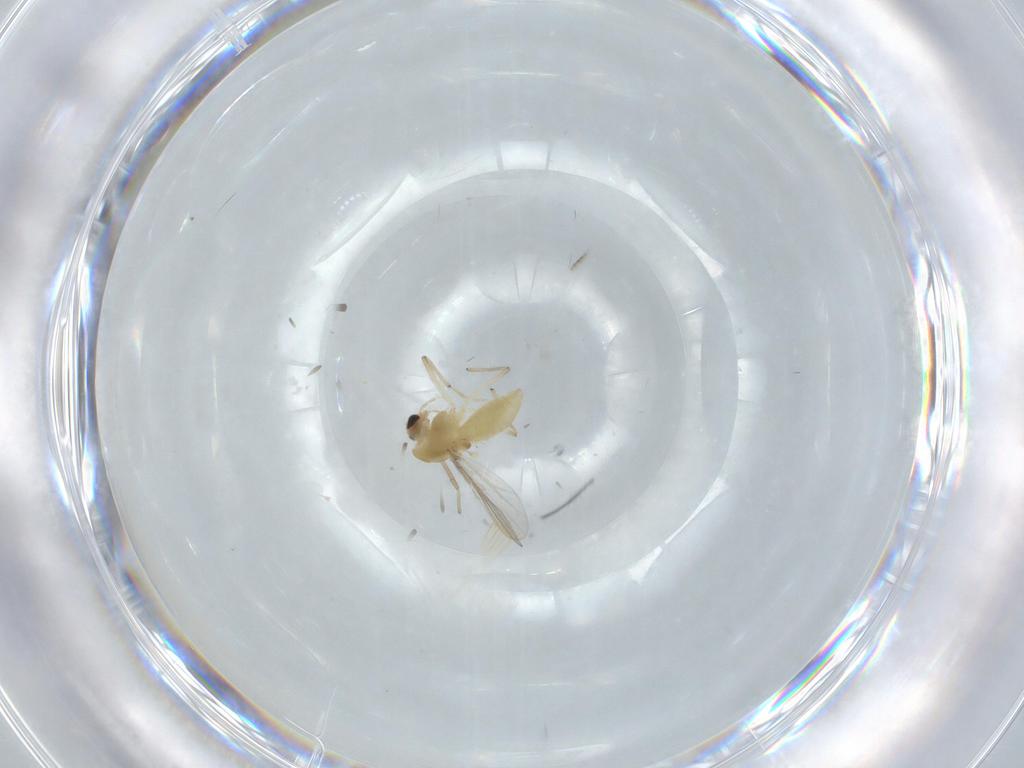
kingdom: Animalia
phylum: Arthropoda
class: Insecta
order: Diptera
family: Chironomidae
